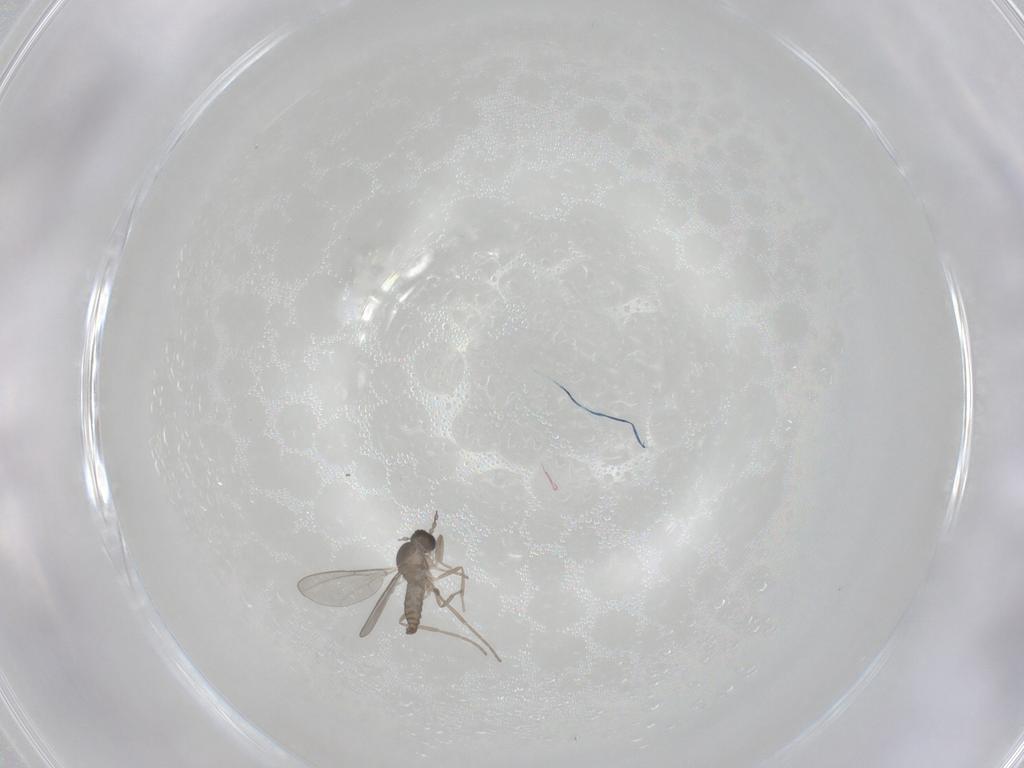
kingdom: Animalia
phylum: Arthropoda
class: Insecta
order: Diptera
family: Cecidomyiidae
